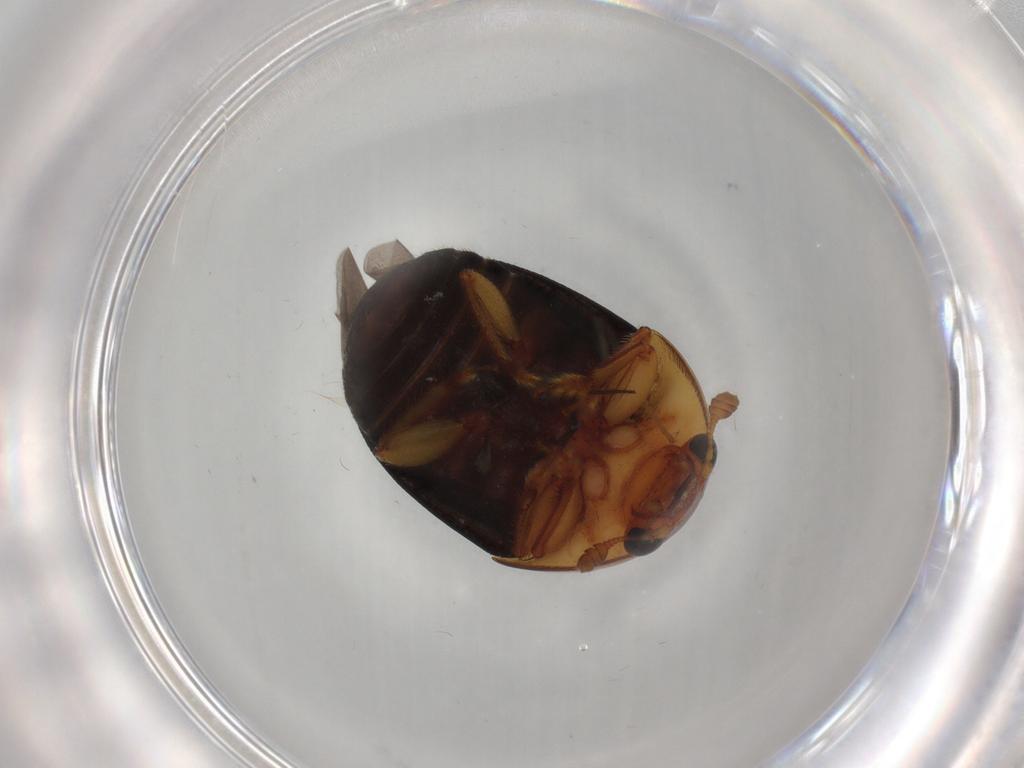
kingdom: Animalia
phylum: Arthropoda
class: Insecta
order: Coleoptera
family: Nitidulidae
